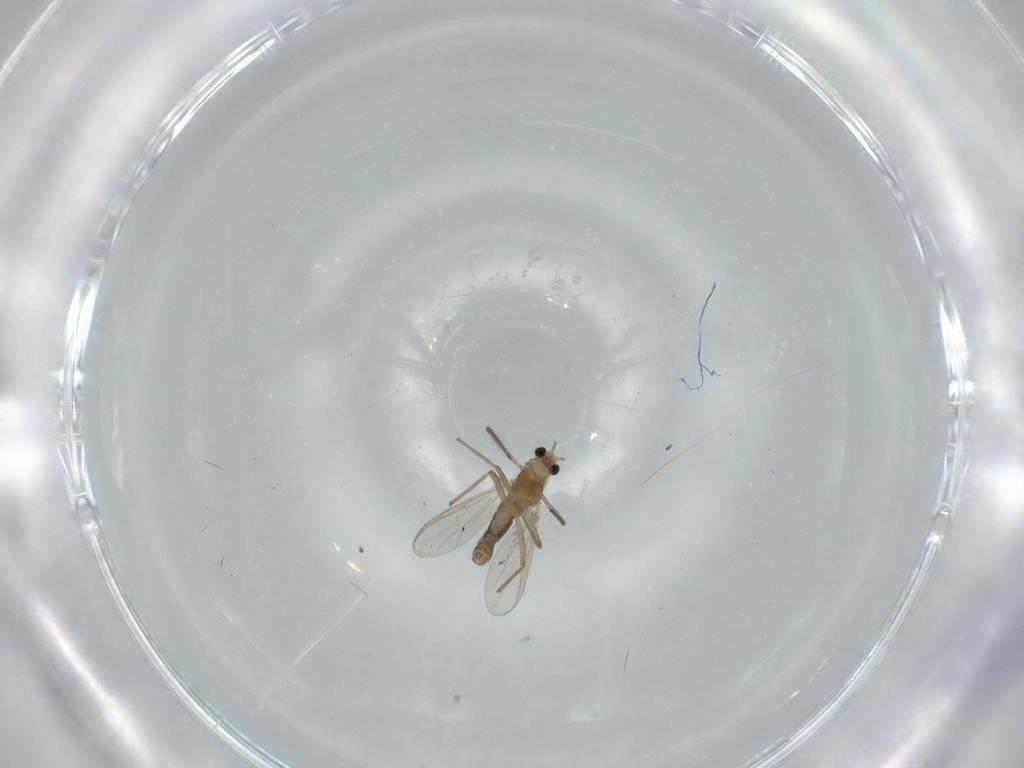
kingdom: Animalia
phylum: Arthropoda
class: Insecta
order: Diptera
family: Chironomidae
